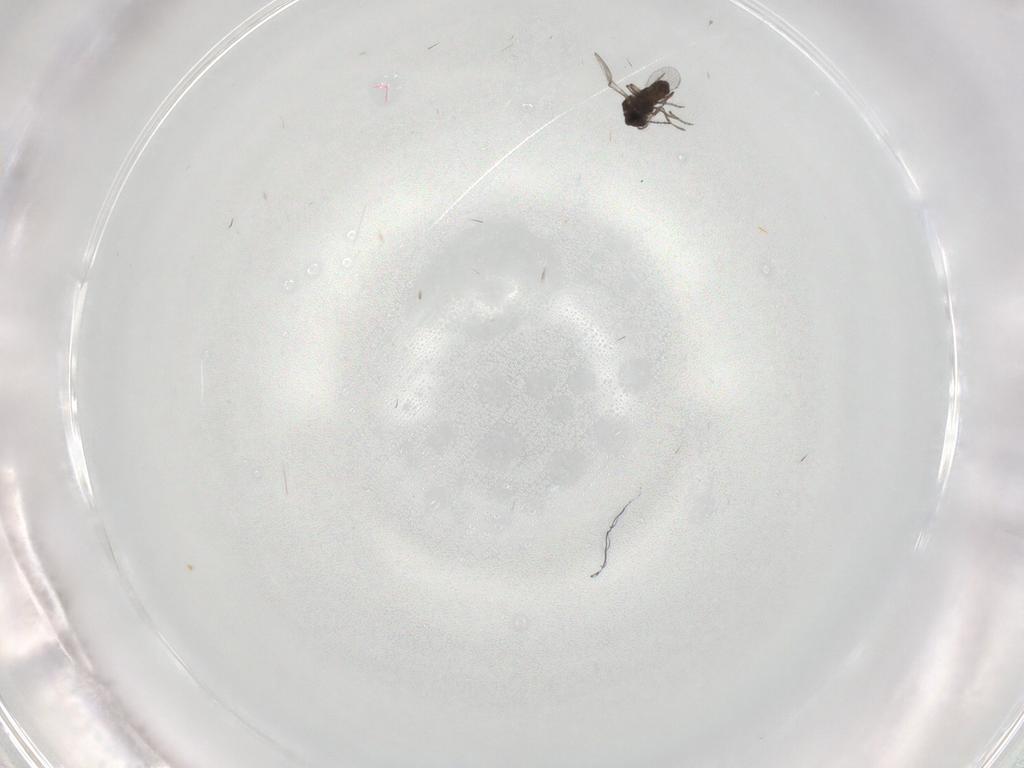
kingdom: Animalia
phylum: Arthropoda
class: Insecta
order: Diptera
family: Ceratopogonidae
